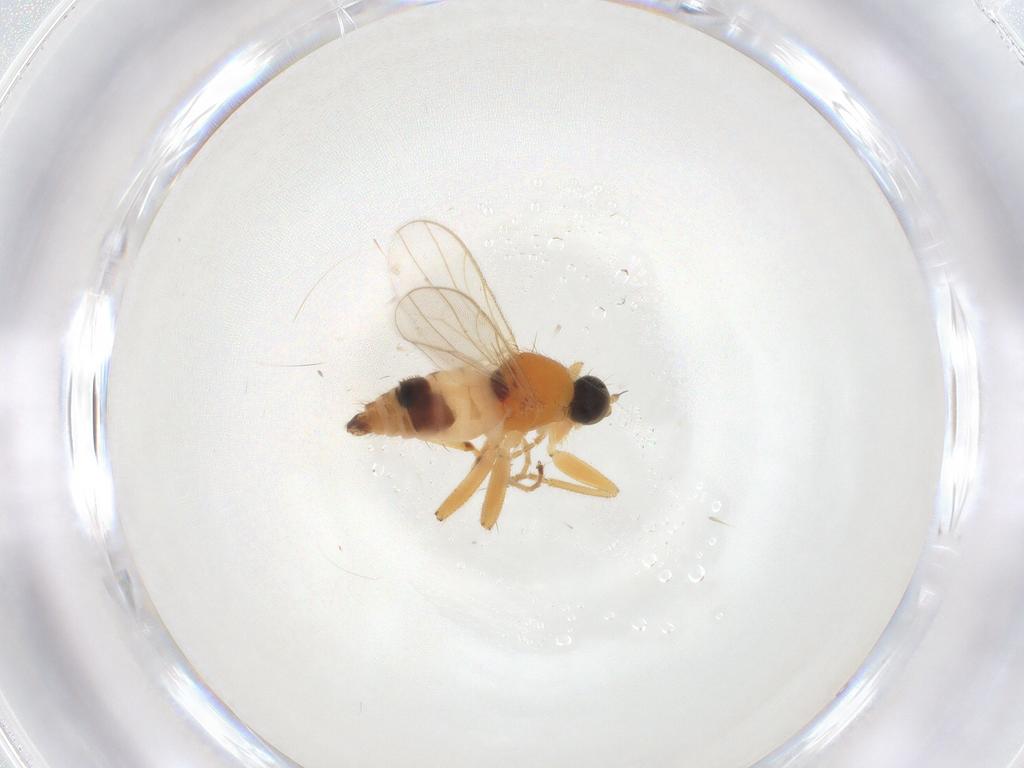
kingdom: Animalia
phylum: Arthropoda
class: Insecta
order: Diptera
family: Hybotidae
